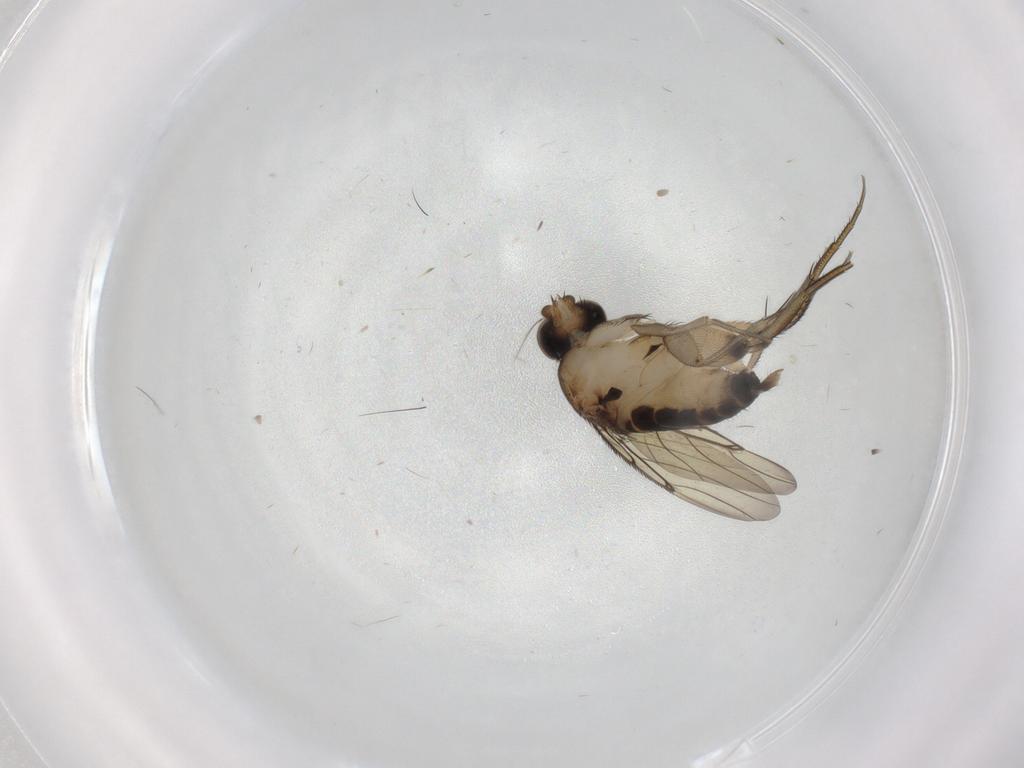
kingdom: Animalia
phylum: Arthropoda
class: Insecta
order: Diptera
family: Phoridae
